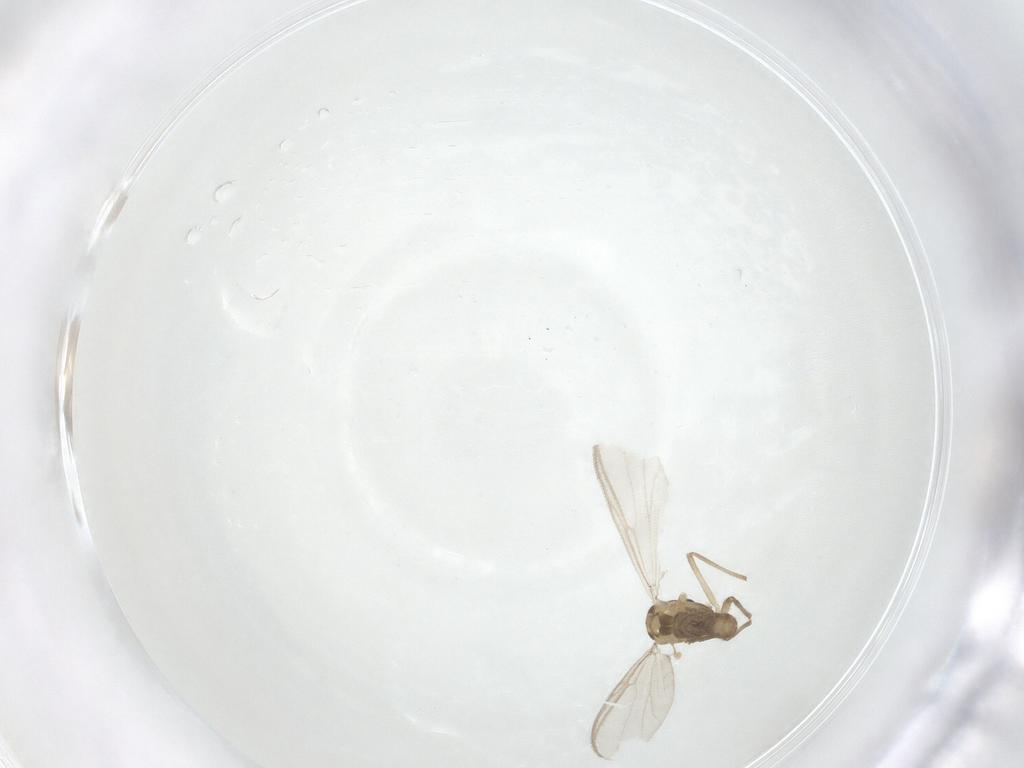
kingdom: Animalia
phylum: Arthropoda
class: Insecta
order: Diptera
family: Chironomidae
